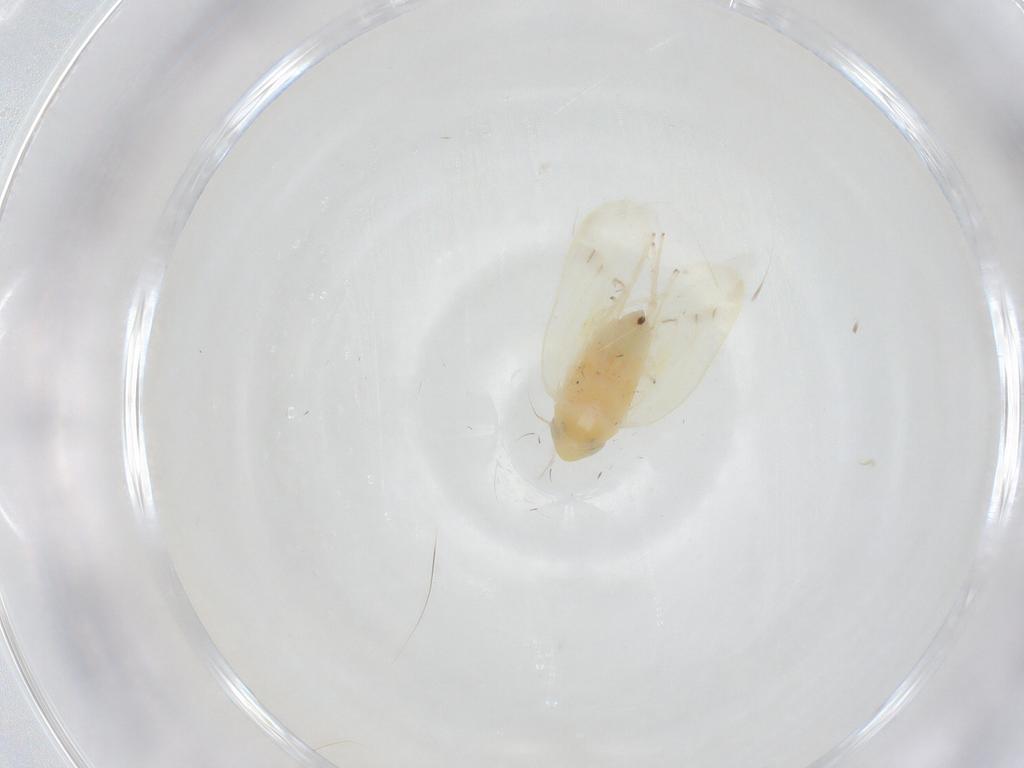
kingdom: Animalia
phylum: Arthropoda
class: Insecta
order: Hemiptera
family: Cicadellidae
